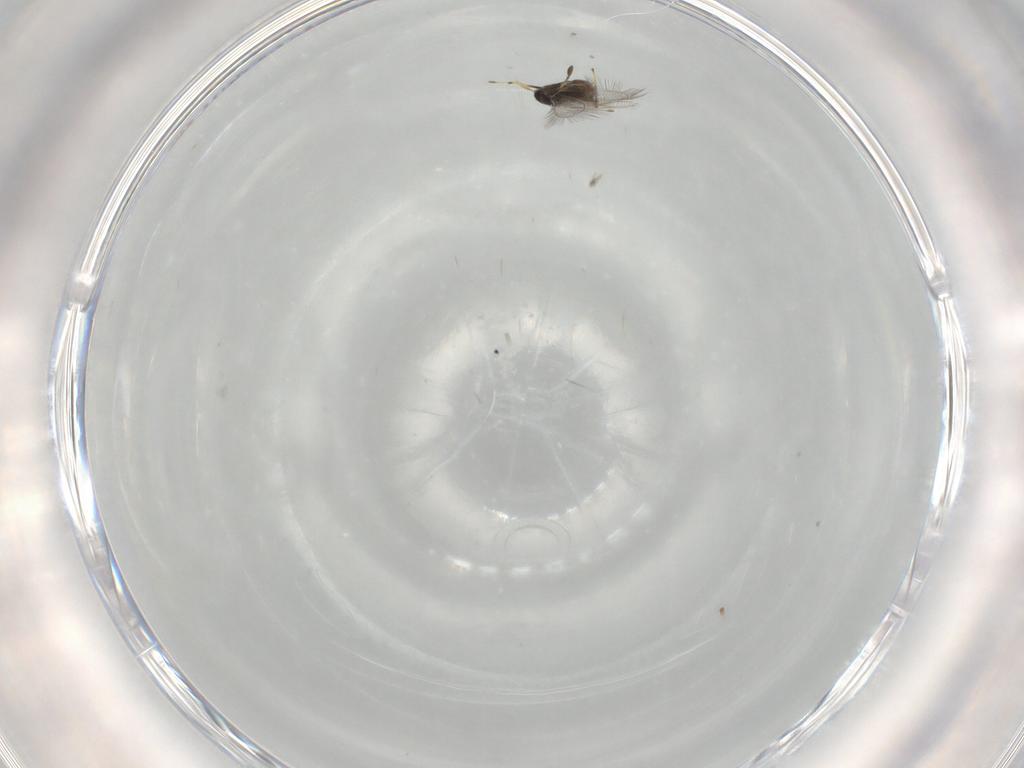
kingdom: Animalia
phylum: Arthropoda
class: Insecta
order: Hymenoptera
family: Mymaridae
